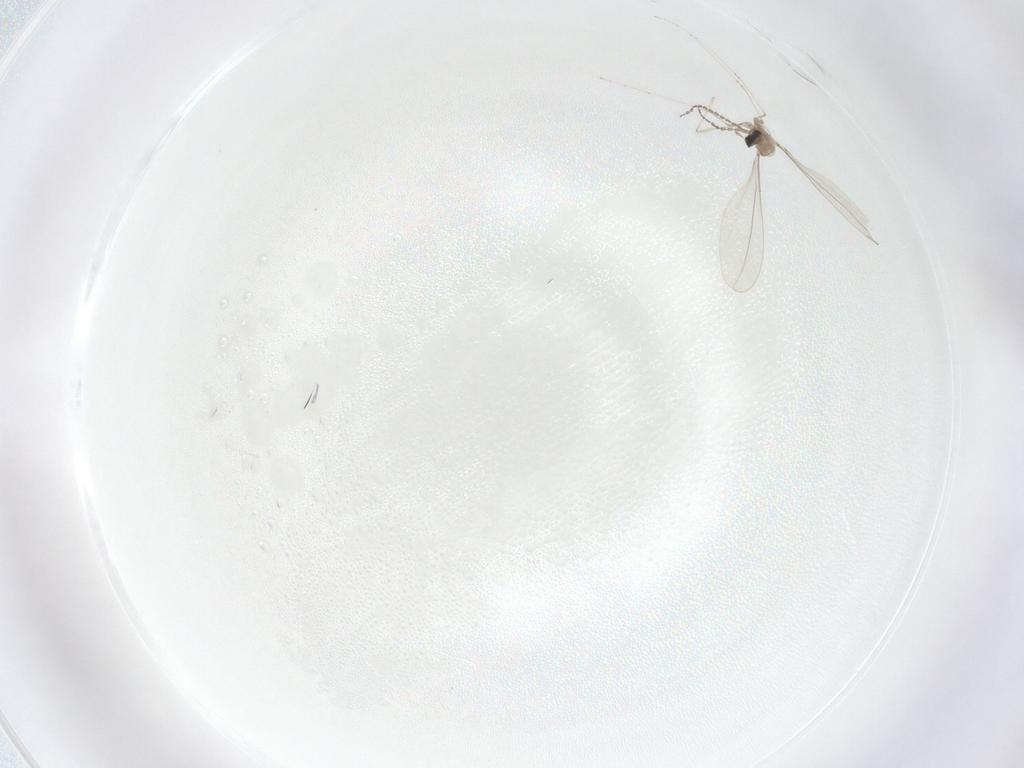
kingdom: Animalia
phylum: Arthropoda
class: Insecta
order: Diptera
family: Cecidomyiidae
